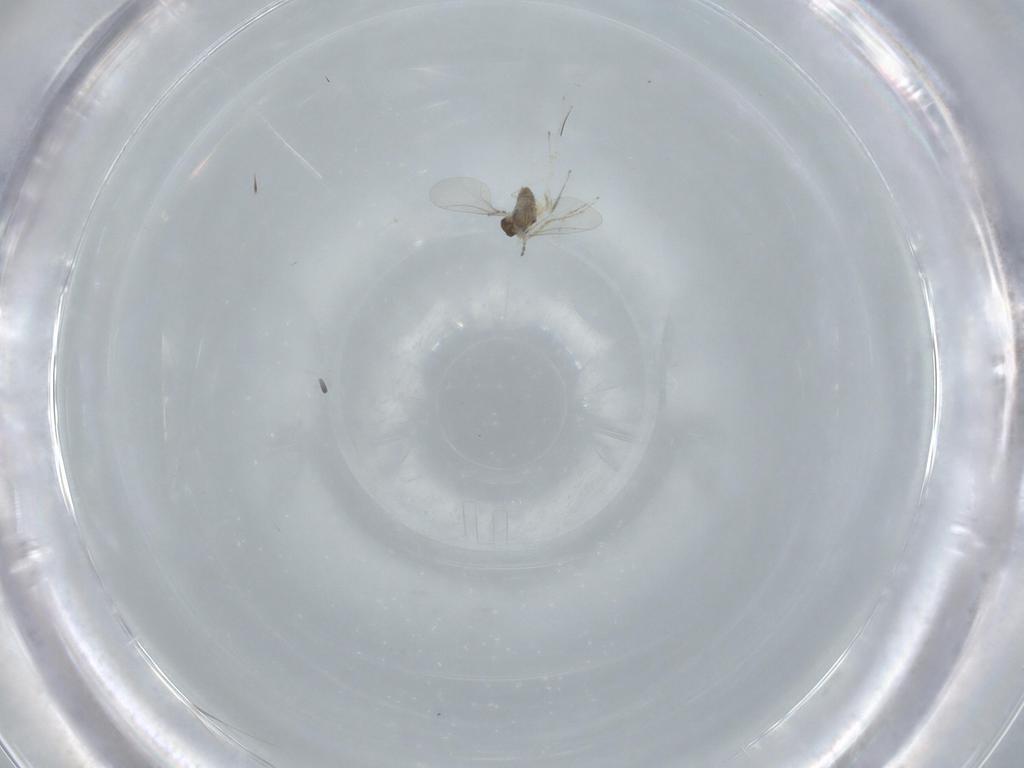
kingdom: Animalia
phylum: Arthropoda
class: Insecta
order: Diptera
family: Cecidomyiidae
